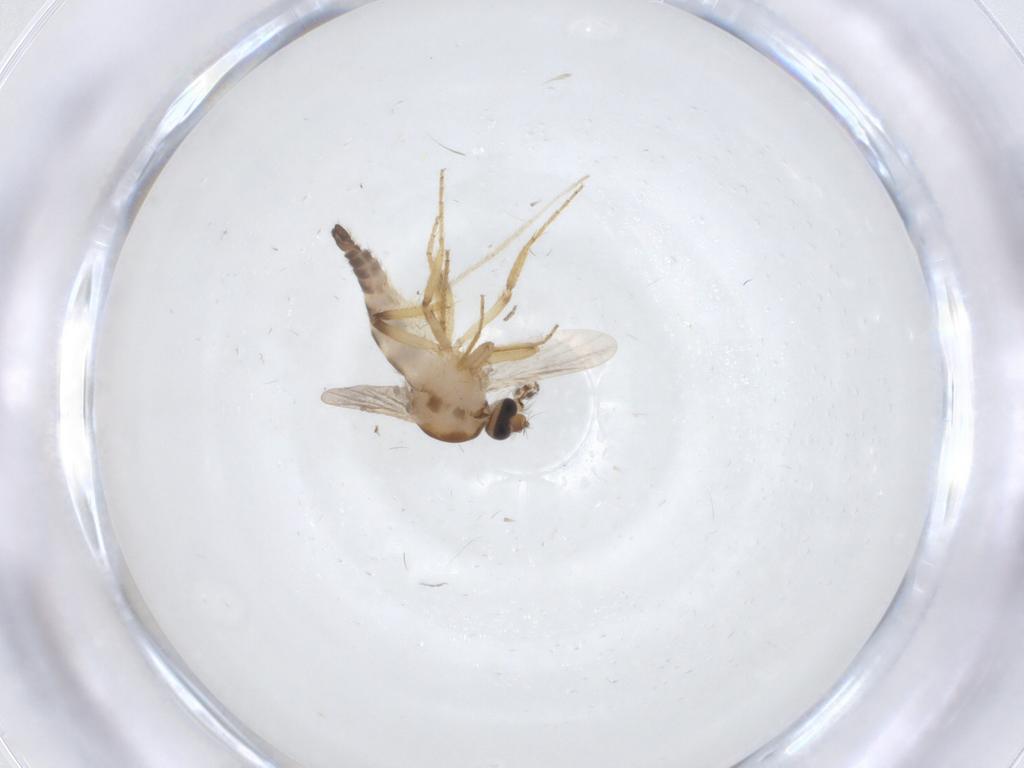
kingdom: Animalia
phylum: Arthropoda
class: Insecta
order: Diptera
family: Ceratopogonidae
